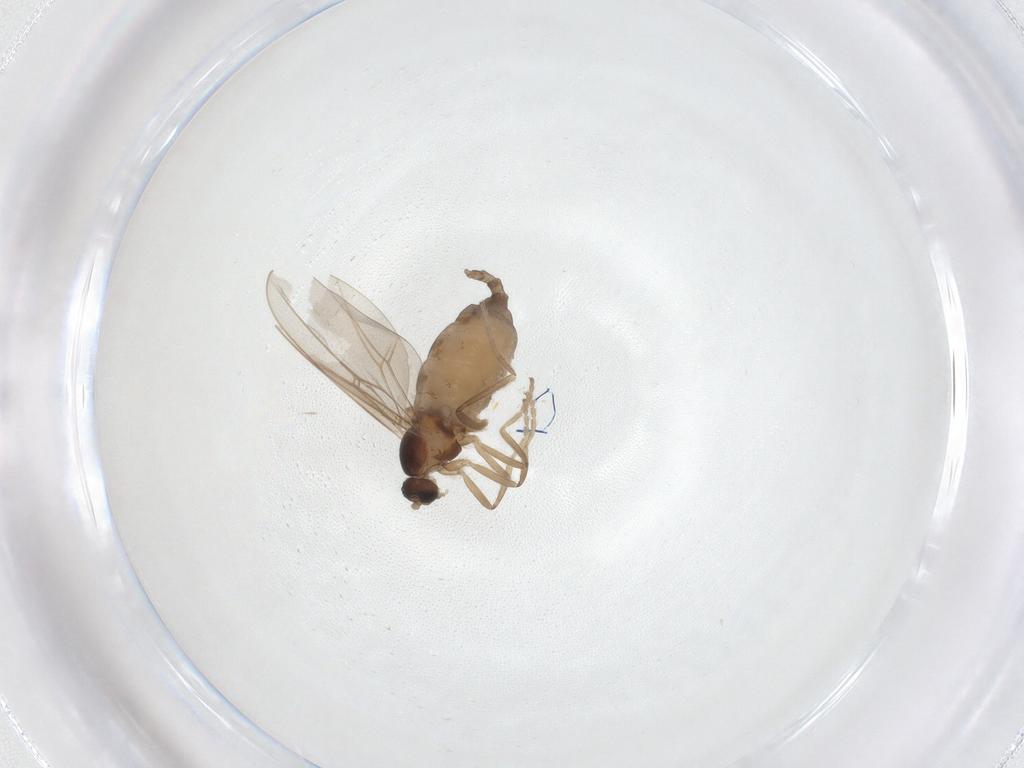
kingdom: Animalia
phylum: Arthropoda
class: Insecta
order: Diptera
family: Cecidomyiidae
